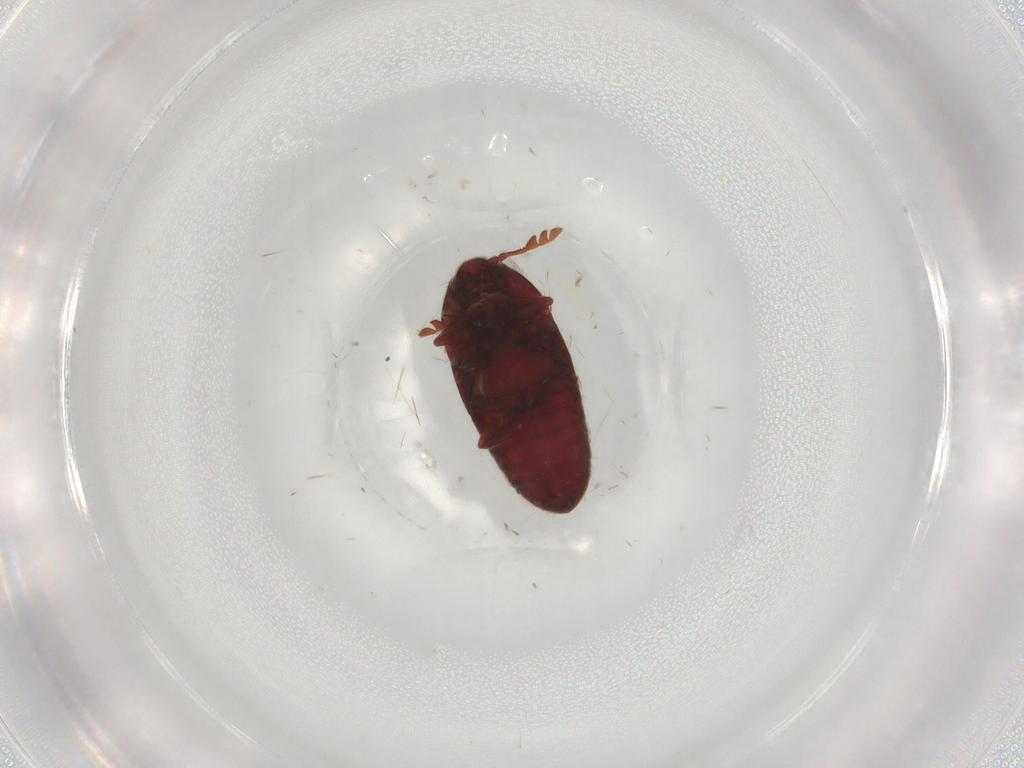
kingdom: Animalia
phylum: Arthropoda
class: Insecta
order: Coleoptera
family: Throscidae
